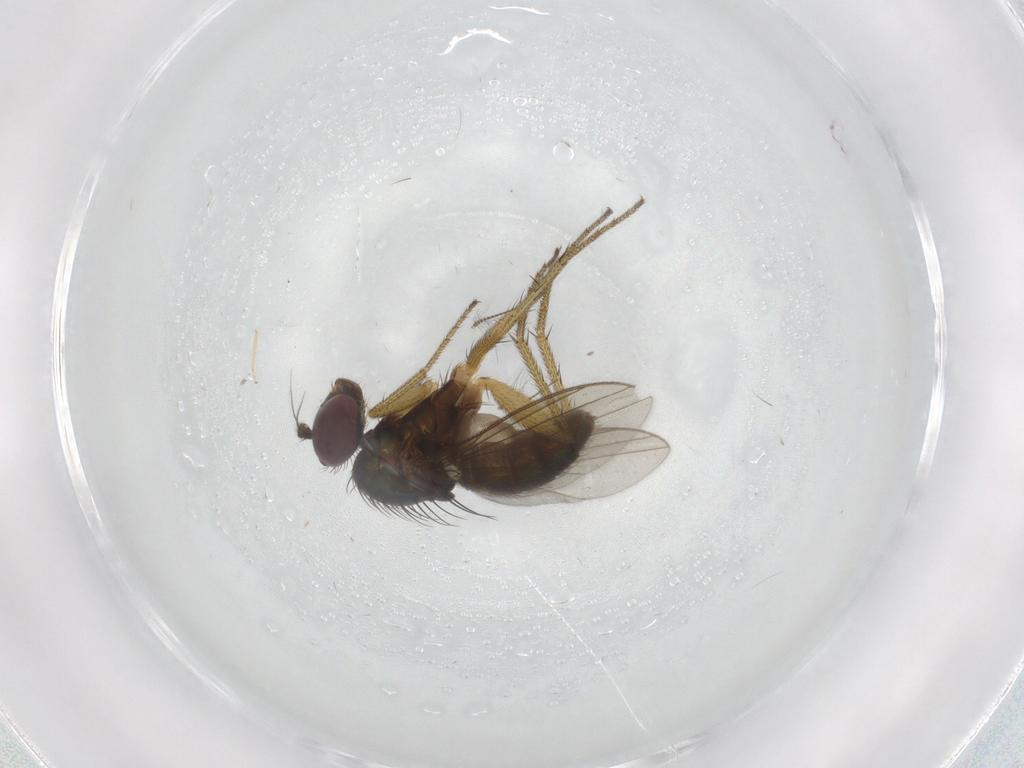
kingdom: Animalia
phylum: Arthropoda
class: Insecta
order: Diptera
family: Chironomidae
